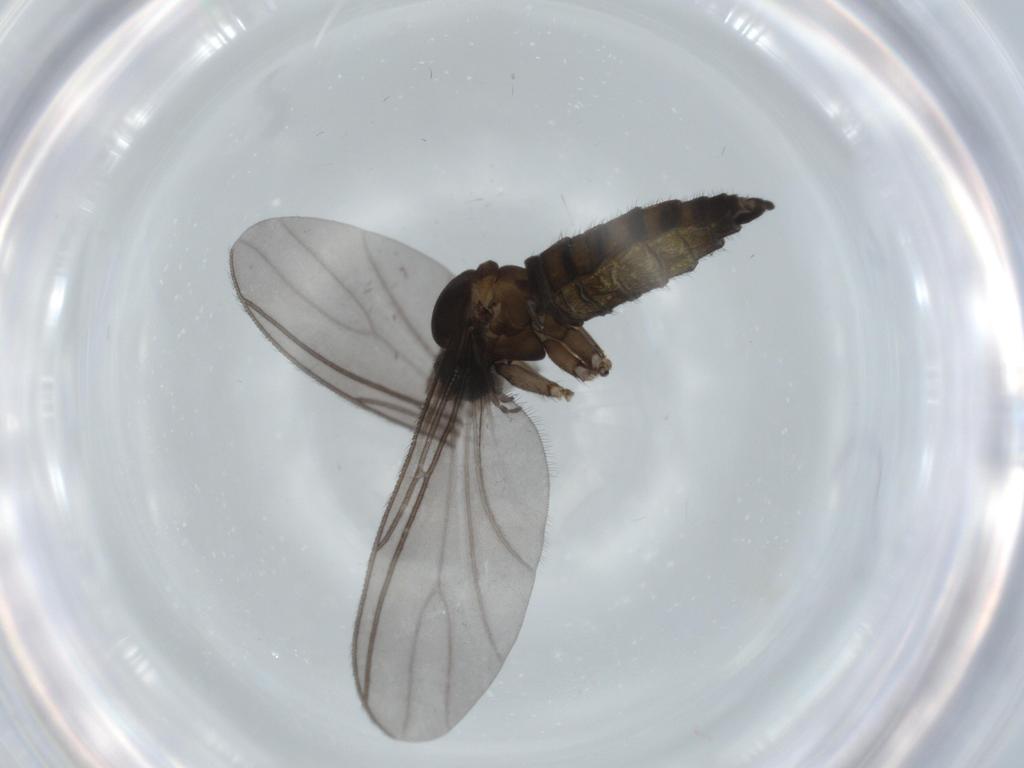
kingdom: Animalia
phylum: Arthropoda
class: Insecta
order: Diptera
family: Sciaridae
